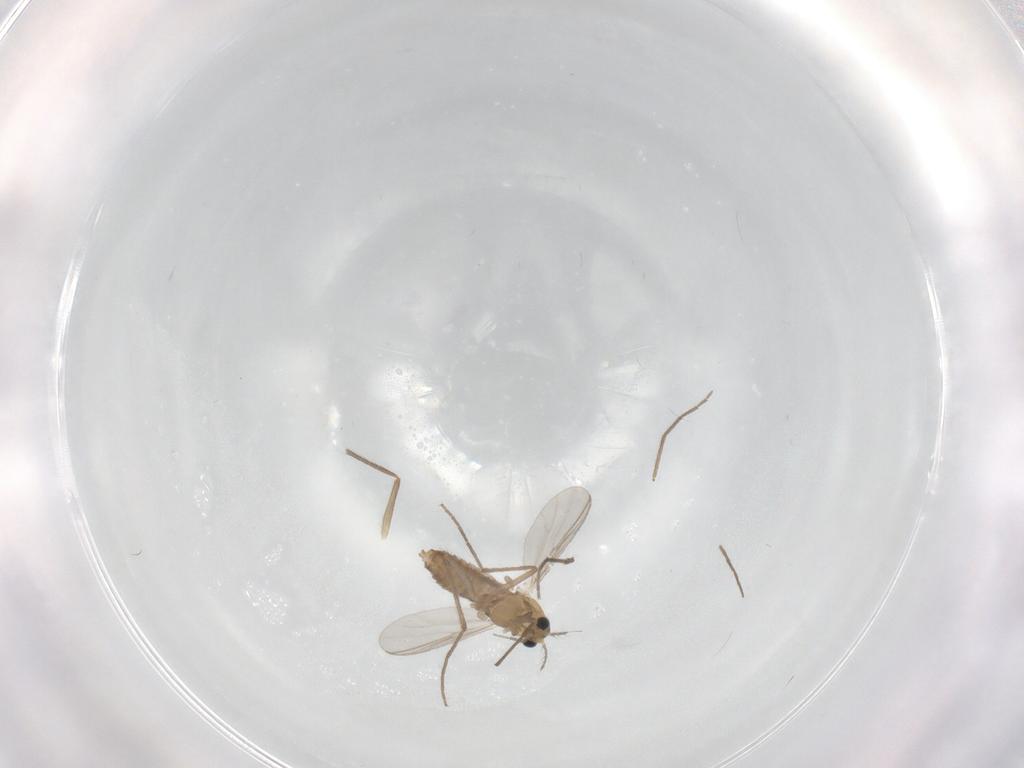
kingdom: Animalia
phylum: Arthropoda
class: Insecta
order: Diptera
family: Chironomidae
